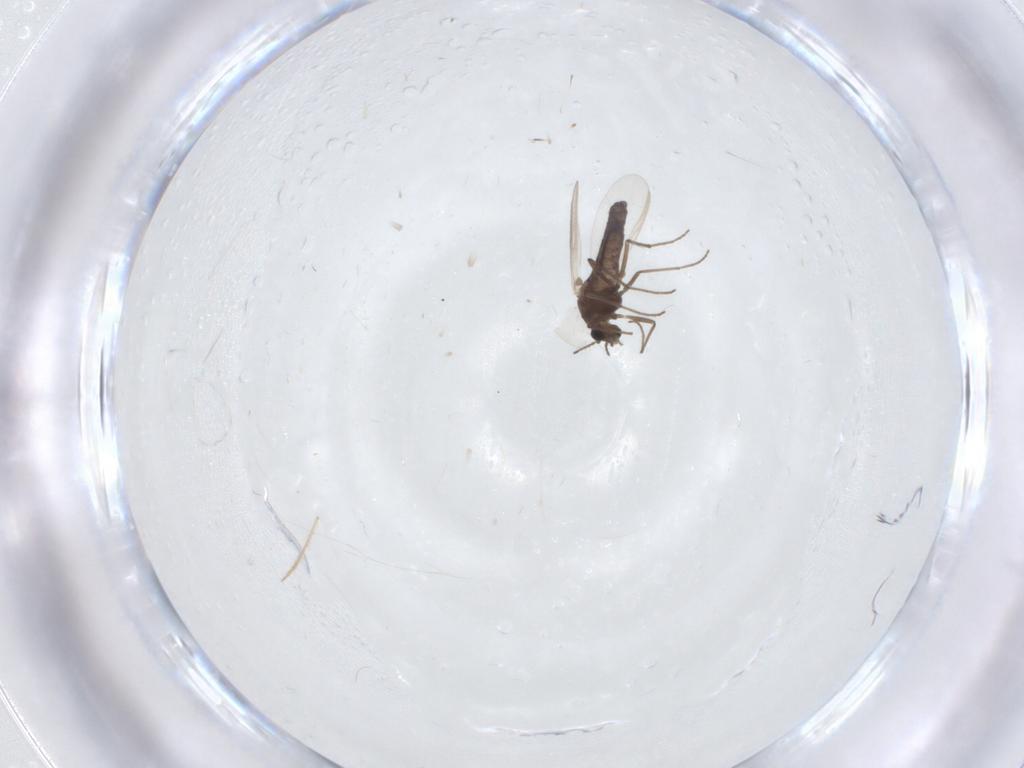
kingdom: Animalia
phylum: Arthropoda
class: Insecta
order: Diptera
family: Chironomidae
